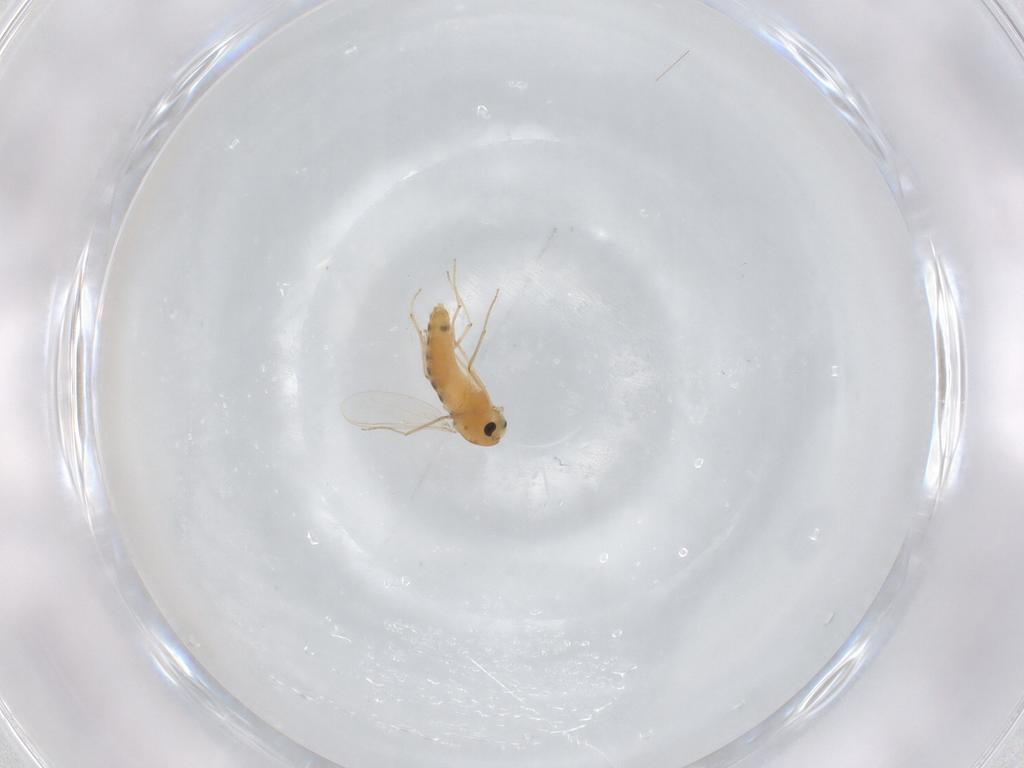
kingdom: Animalia
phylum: Arthropoda
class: Insecta
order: Diptera
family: Chironomidae
